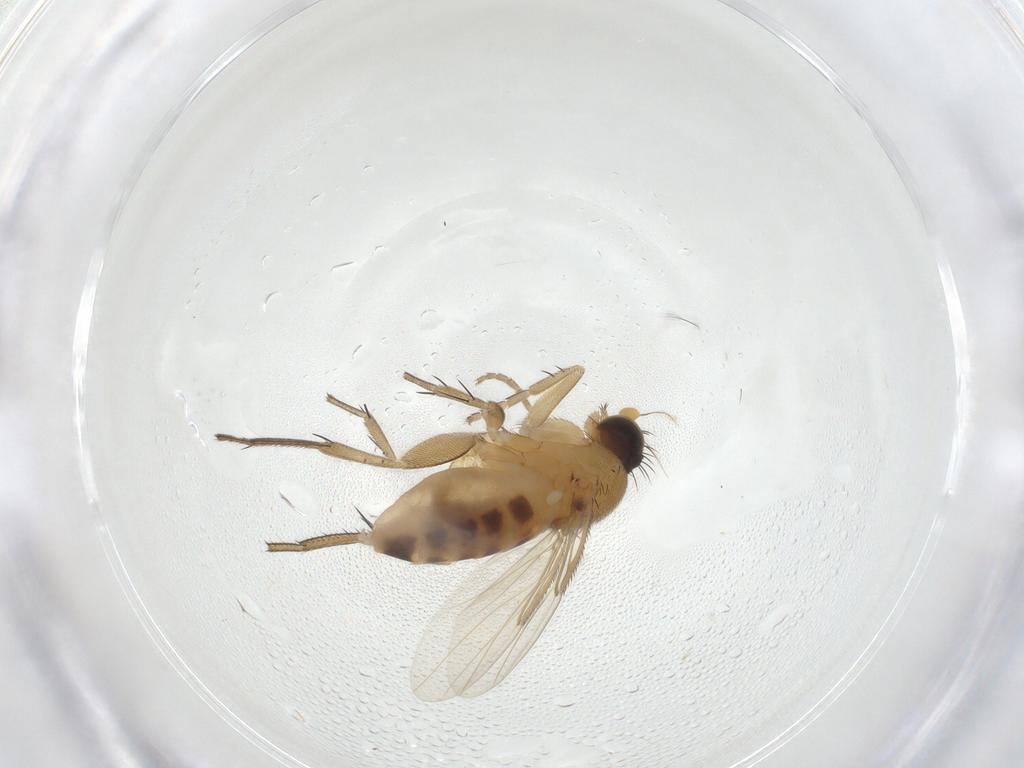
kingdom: Animalia
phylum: Arthropoda
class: Insecta
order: Diptera
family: Phoridae
